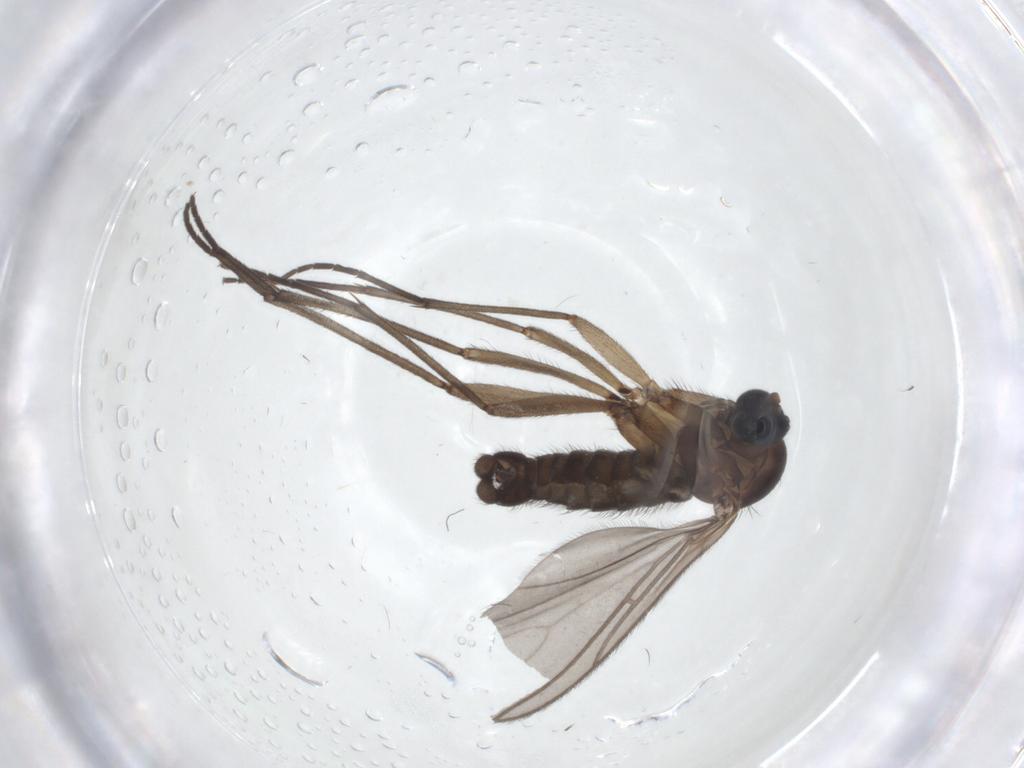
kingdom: Animalia
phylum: Arthropoda
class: Insecta
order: Diptera
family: Sciaridae
